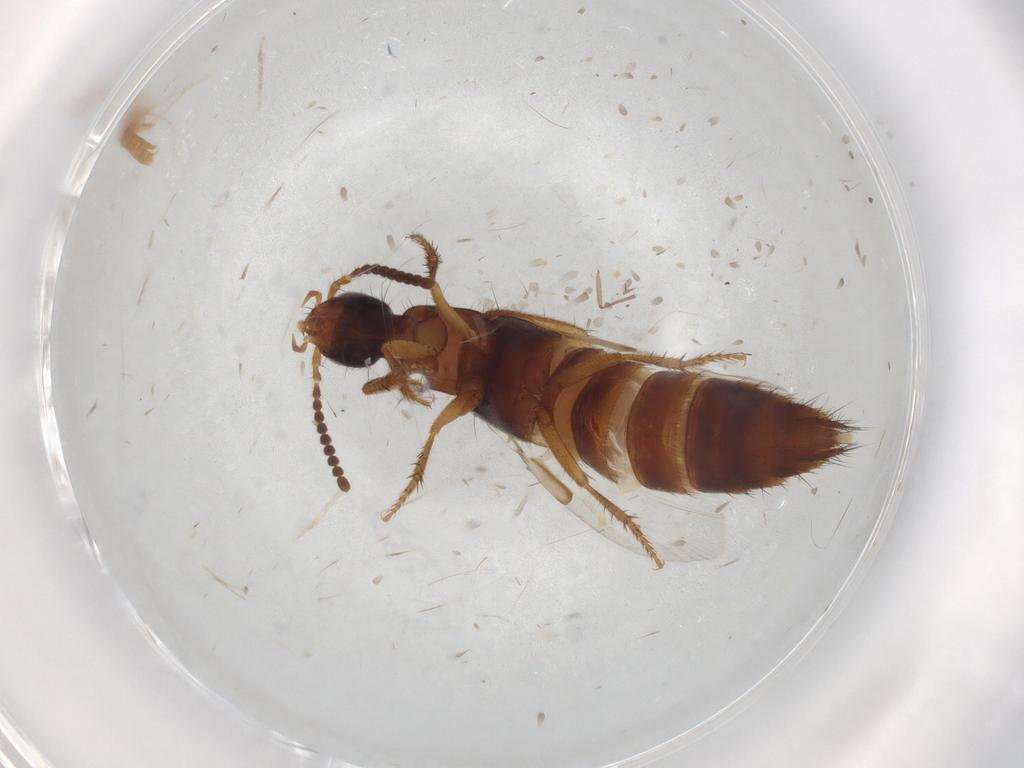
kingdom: Animalia
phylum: Arthropoda
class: Insecta
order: Coleoptera
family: Staphylinidae
